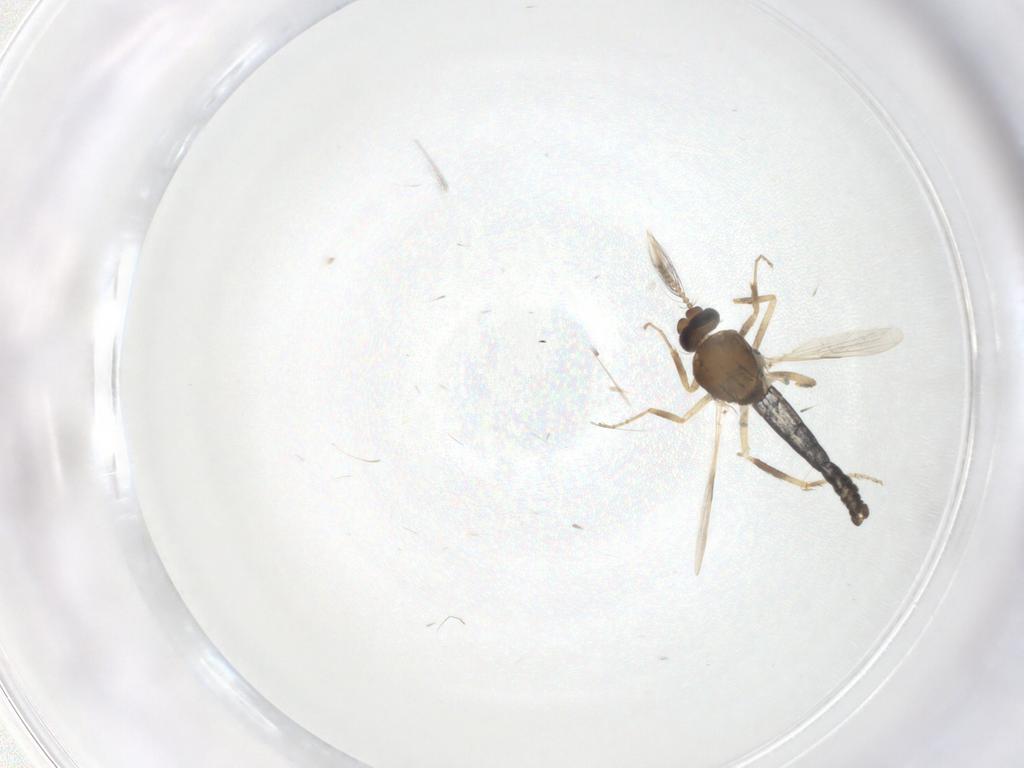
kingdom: Animalia
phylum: Arthropoda
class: Insecta
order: Diptera
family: Ceratopogonidae
